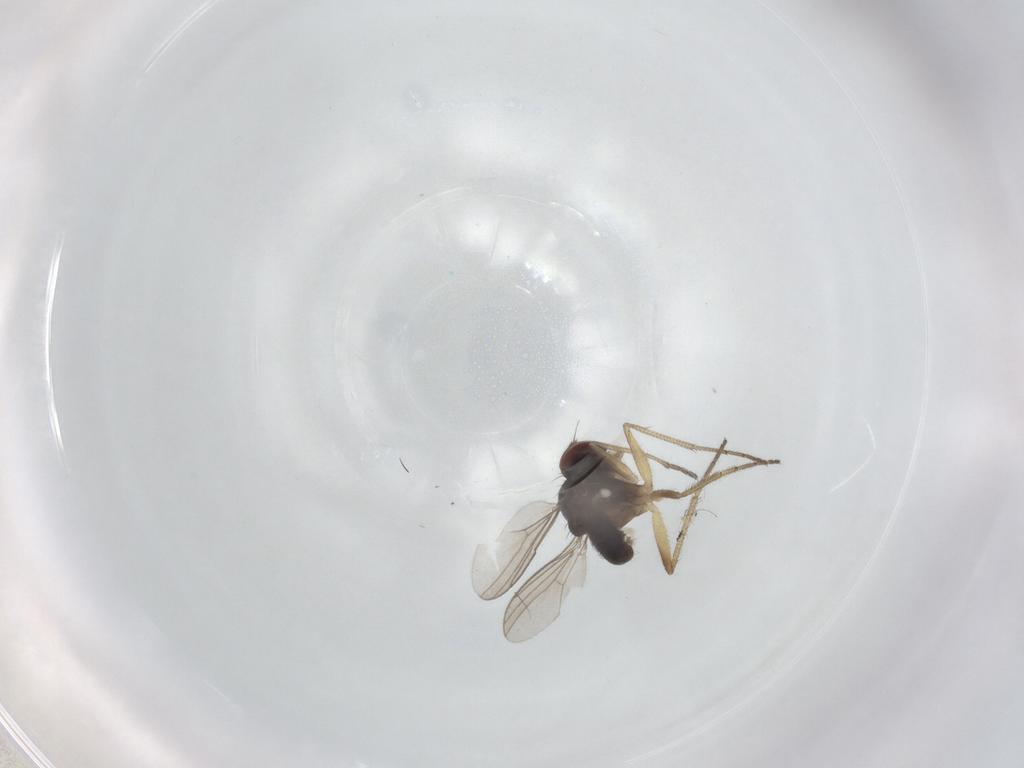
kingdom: Animalia
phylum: Arthropoda
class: Insecta
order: Diptera
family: Dolichopodidae
